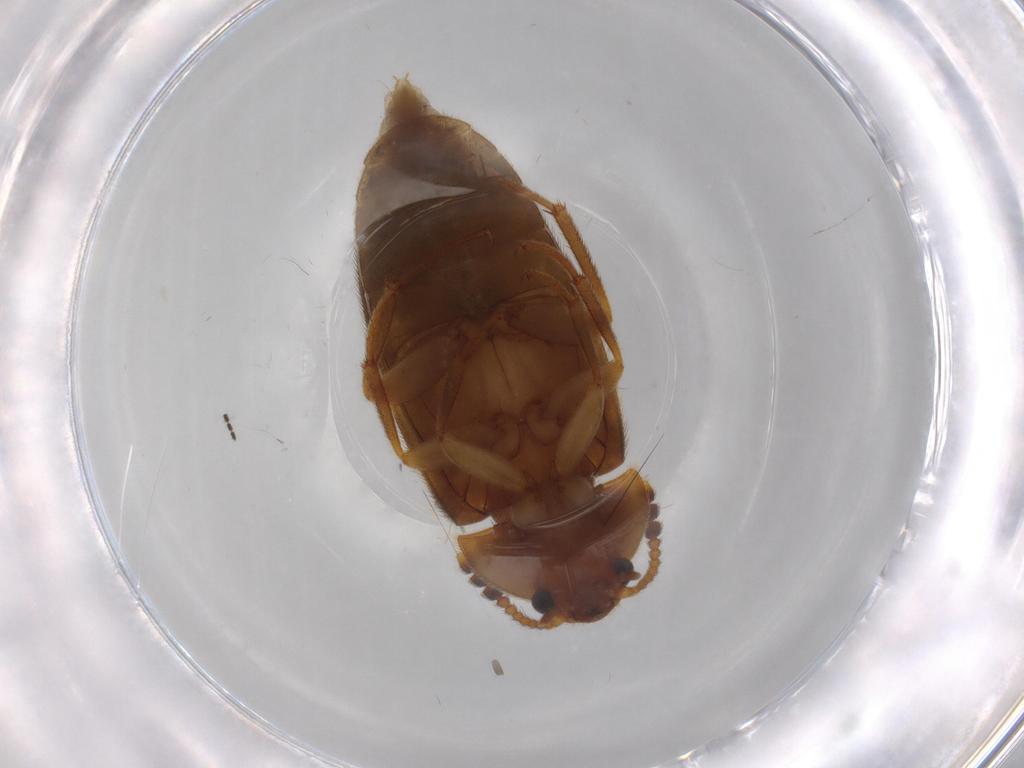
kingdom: Animalia
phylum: Arthropoda
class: Insecta
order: Coleoptera
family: Mycetophagidae
